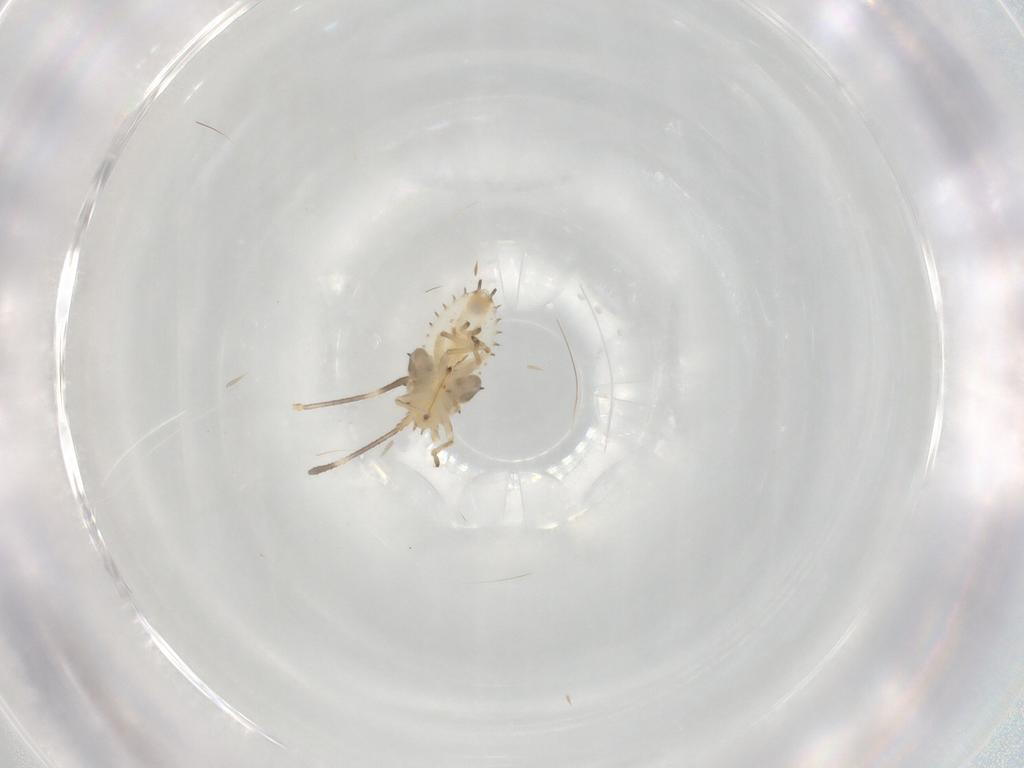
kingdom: Animalia
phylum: Arthropoda
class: Insecta
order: Hemiptera
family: Tingidae
